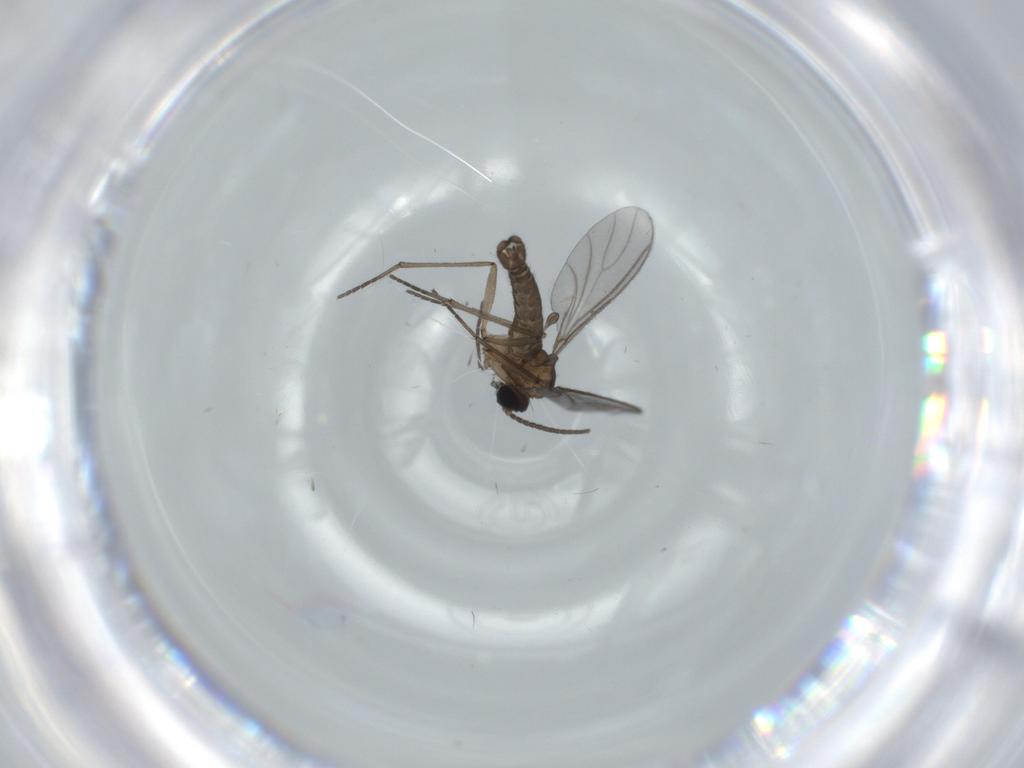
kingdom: Animalia
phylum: Arthropoda
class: Insecta
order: Diptera
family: Sciaridae
